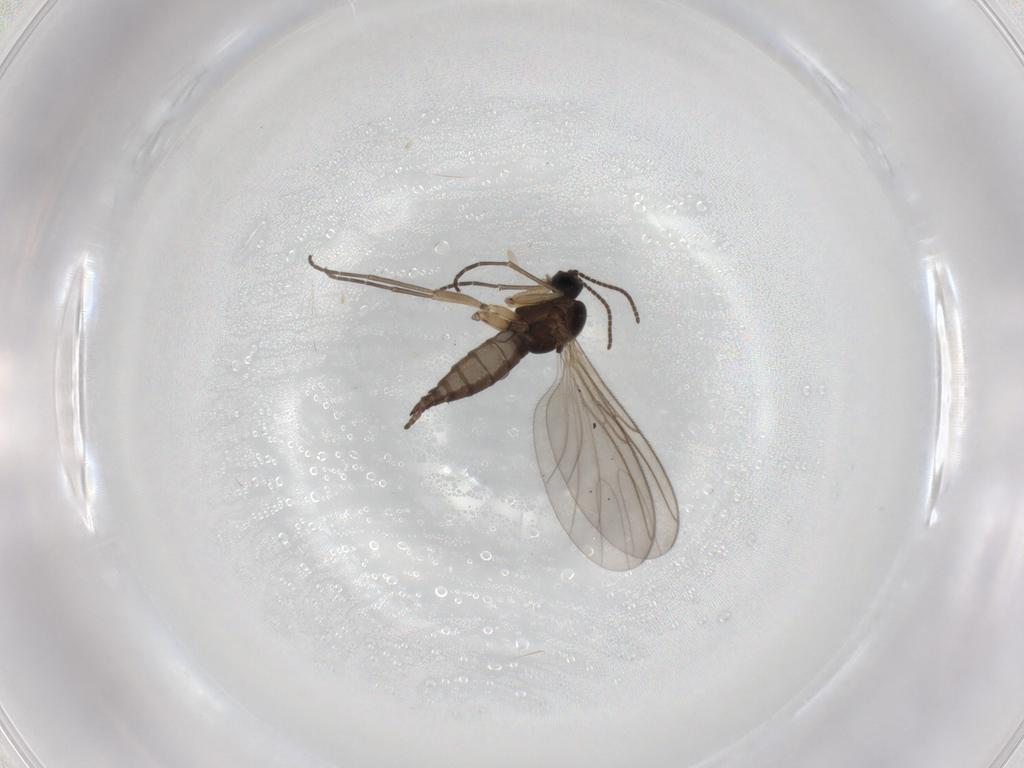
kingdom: Animalia
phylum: Arthropoda
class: Insecta
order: Diptera
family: Sciaridae
